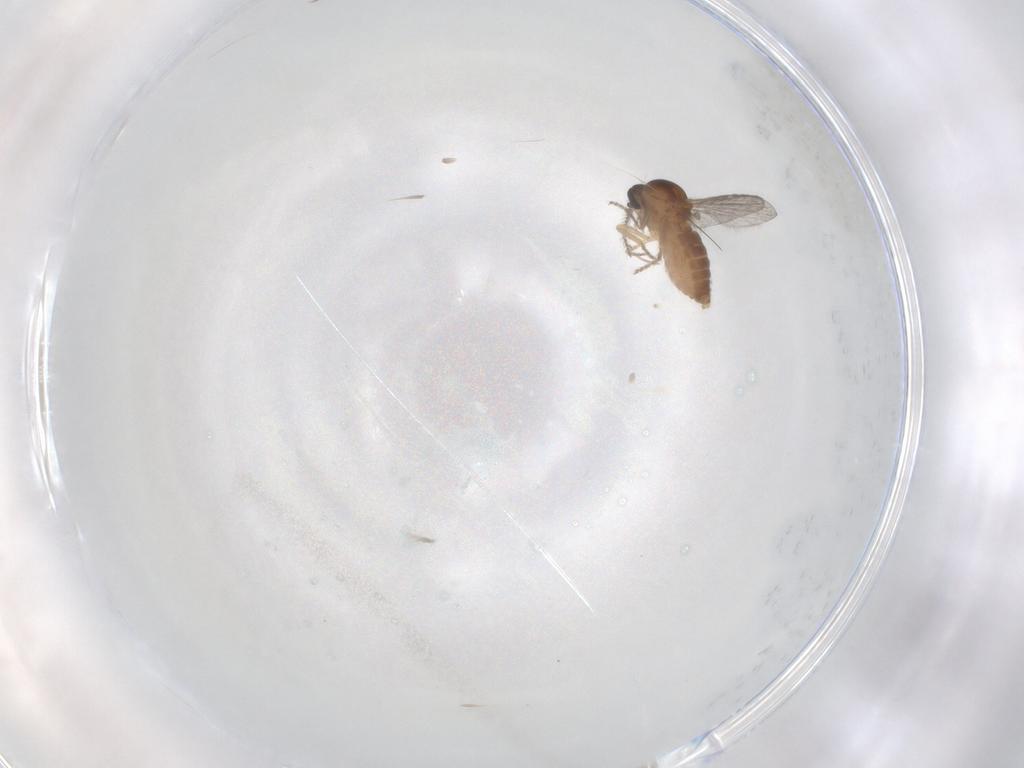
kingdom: Animalia
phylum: Arthropoda
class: Insecta
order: Diptera
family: Ceratopogonidae
